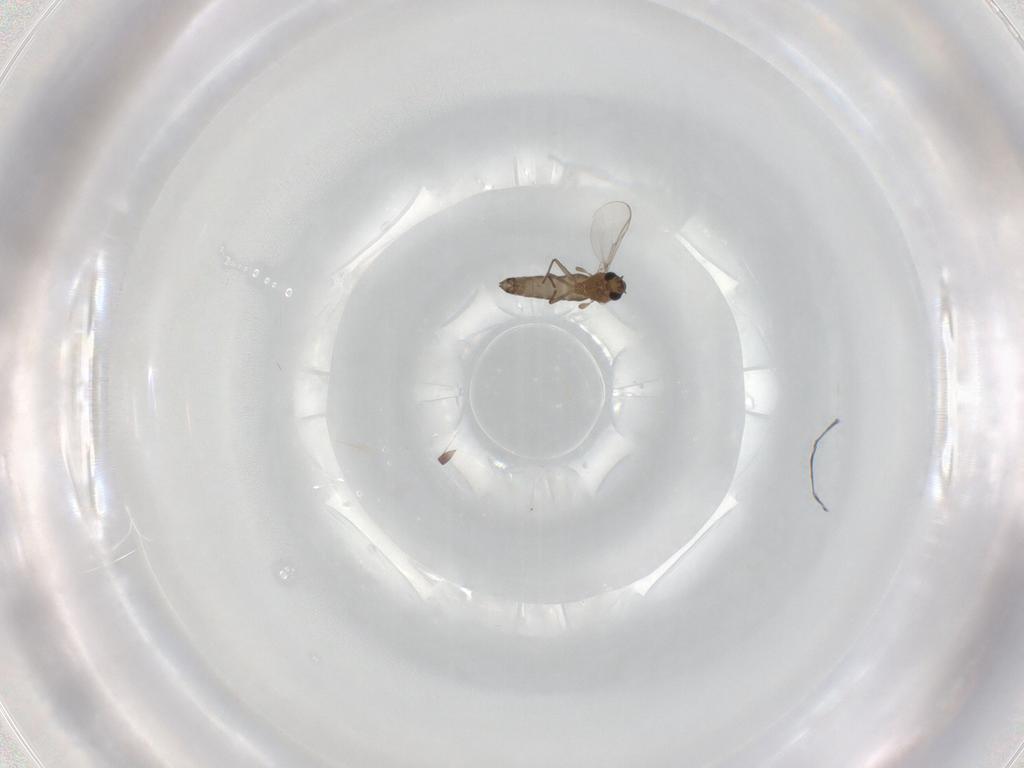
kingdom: Animalia
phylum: Arthropoda
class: Insecta
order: Diptera
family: Chironomidae
